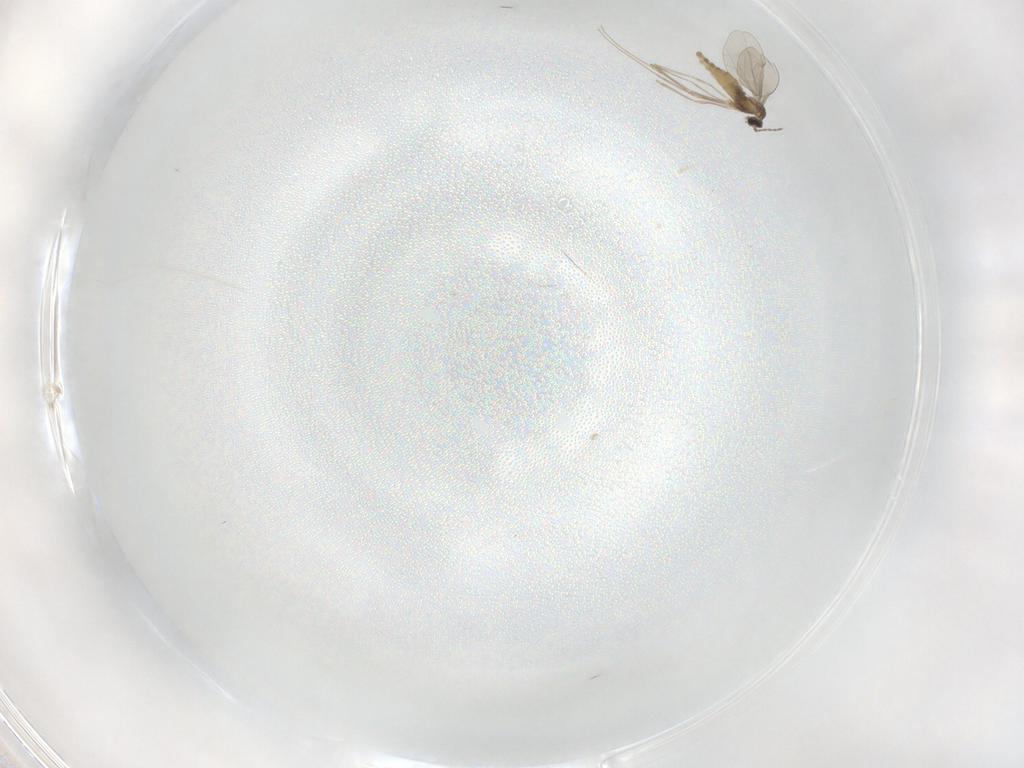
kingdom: Animalia
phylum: Arthropoda
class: Insecta
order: Diptera
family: Cecidomyiidae
